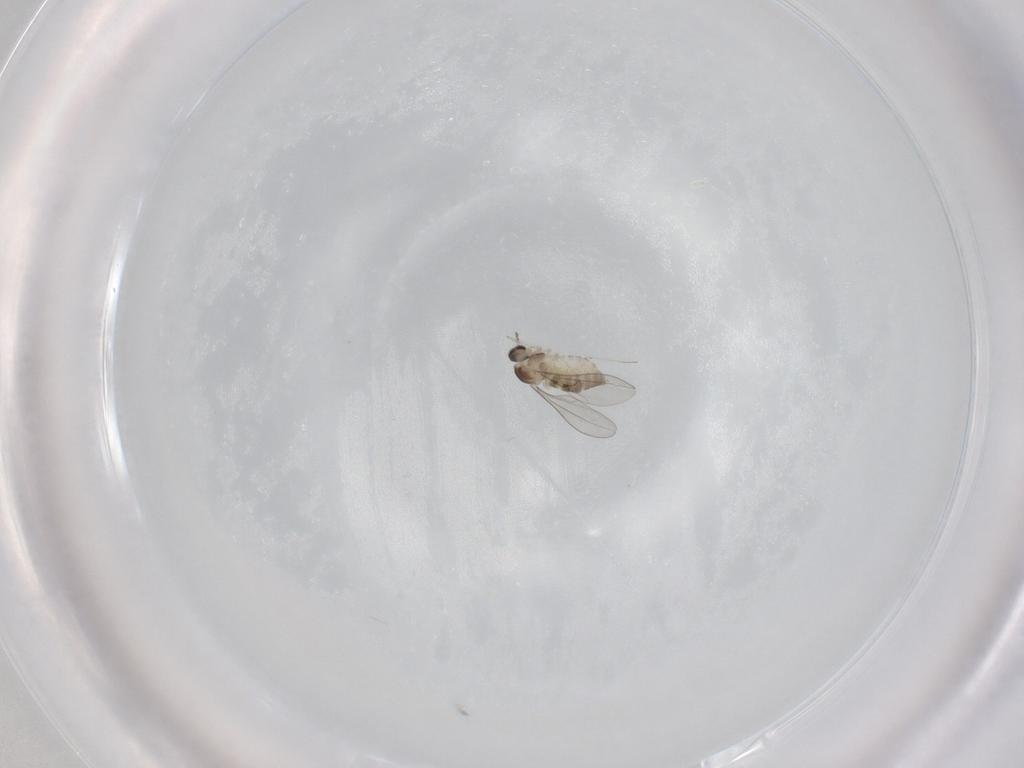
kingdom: Animalia
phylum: Arthropoda
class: Insecta
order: Diptera
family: Cecidomyiidae
